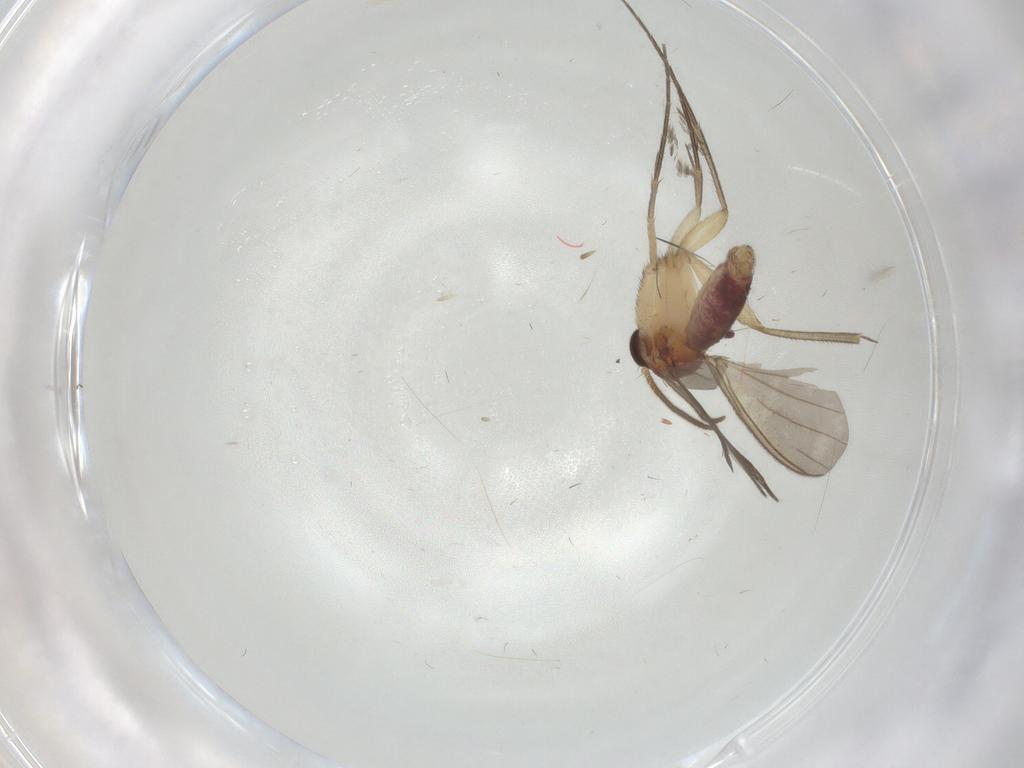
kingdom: Animalia
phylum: Arthropoda
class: Insecta
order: Diptera
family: Mycetophilidae
